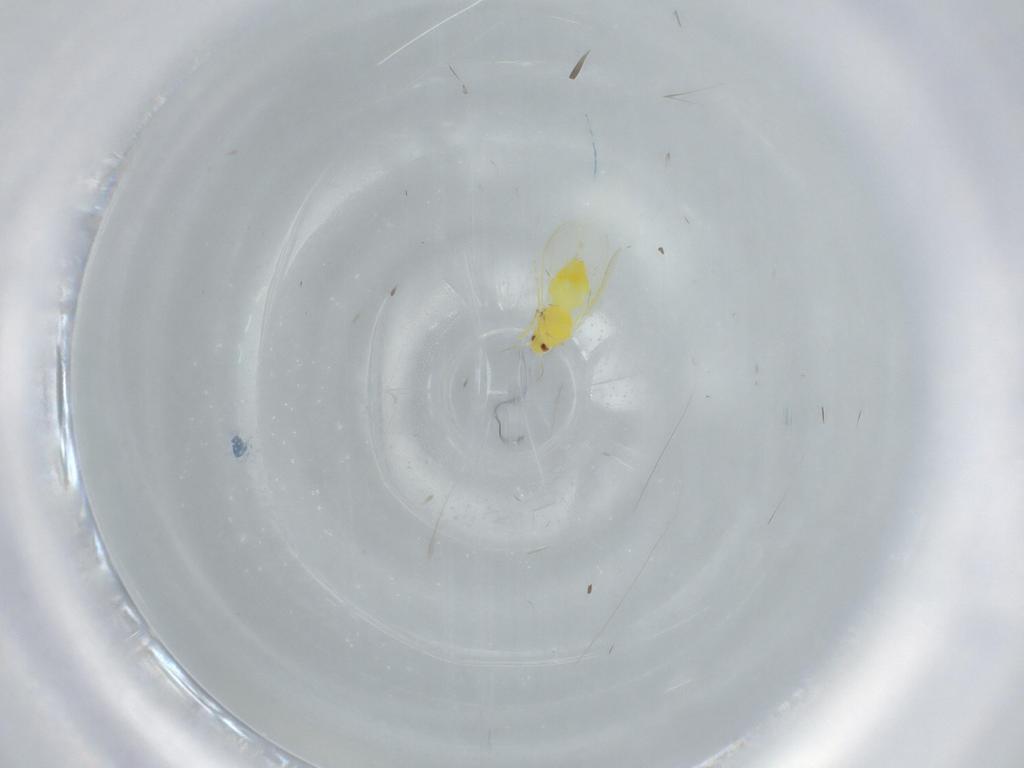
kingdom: Animalia
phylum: Arthropoda
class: Insecta
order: Hemiptera
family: Aleyrodidae
